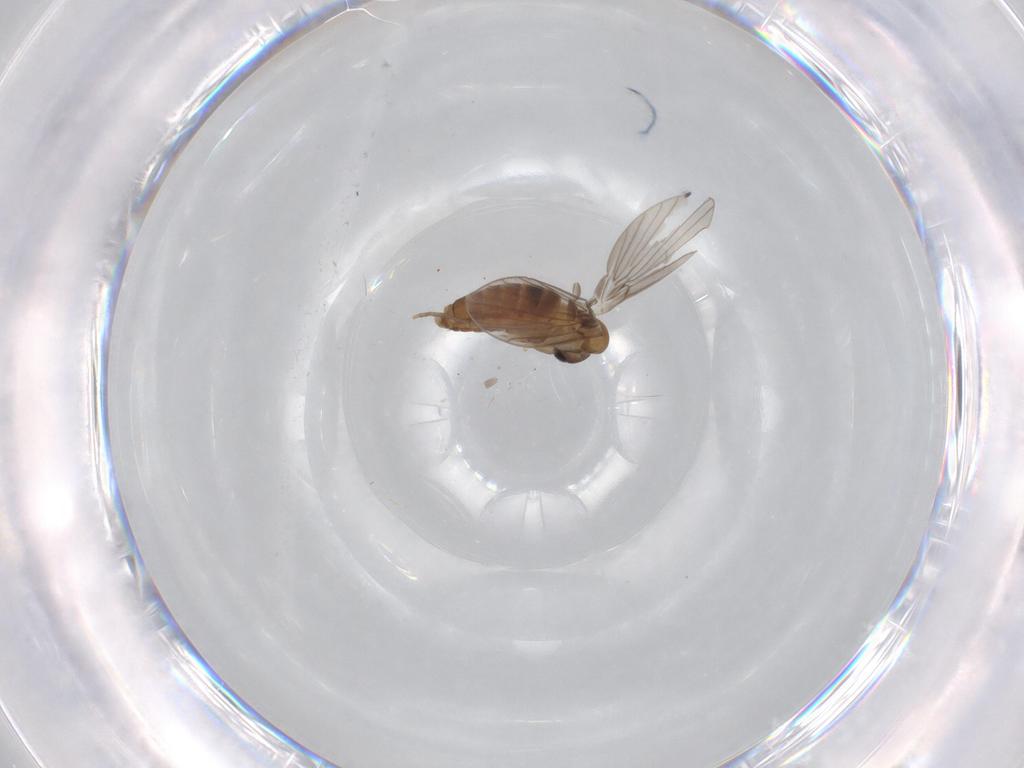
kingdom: Animalia
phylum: Arthropoda
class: Insecta
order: Diptera
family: Sciaridae
